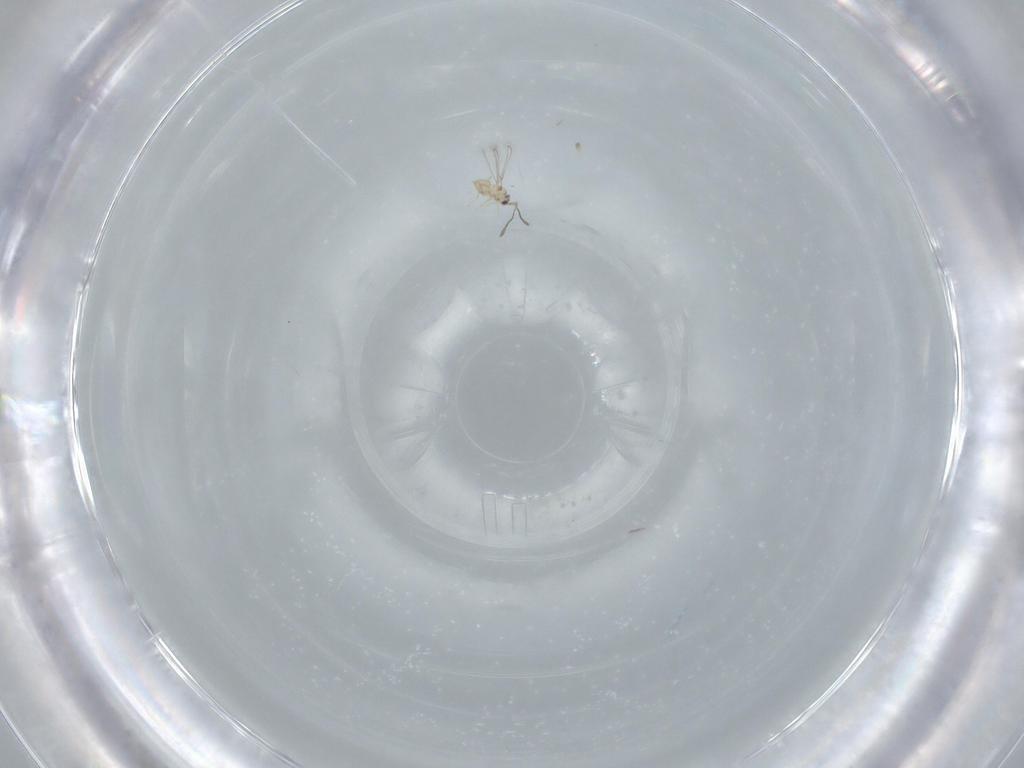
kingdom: Animalia
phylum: Arthropoda
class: Insecta
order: Hymenoptera
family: Mymaridae
